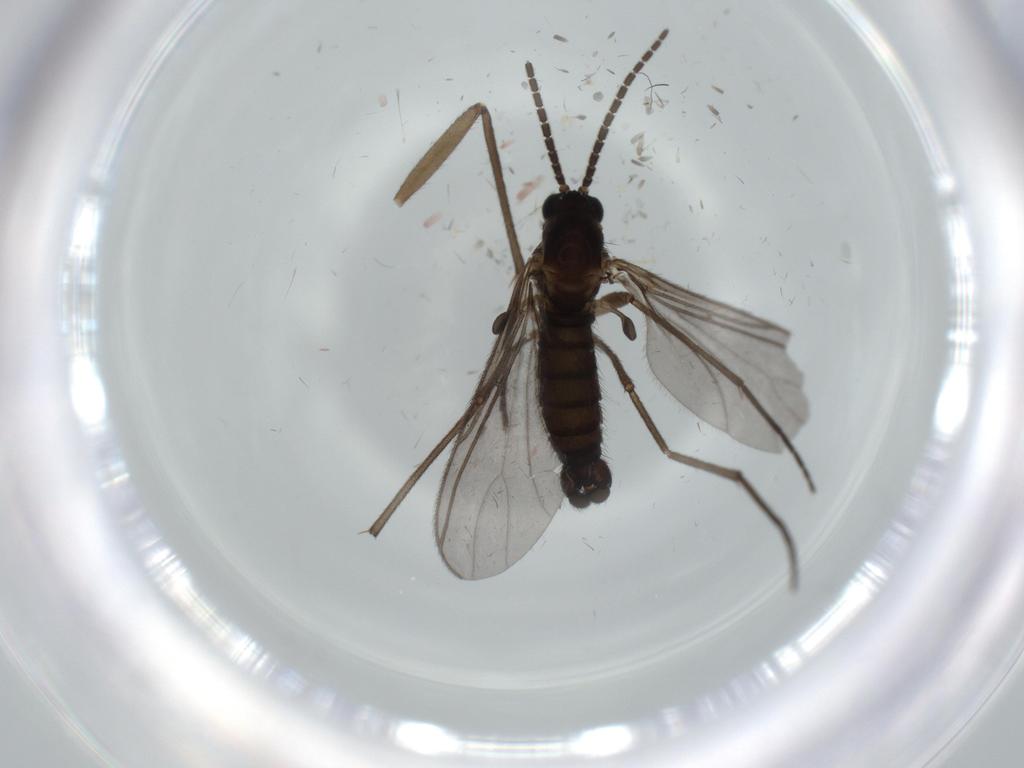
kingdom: Animalia
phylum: Arthropoda
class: Insecta
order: Diptera
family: Sciaridae
